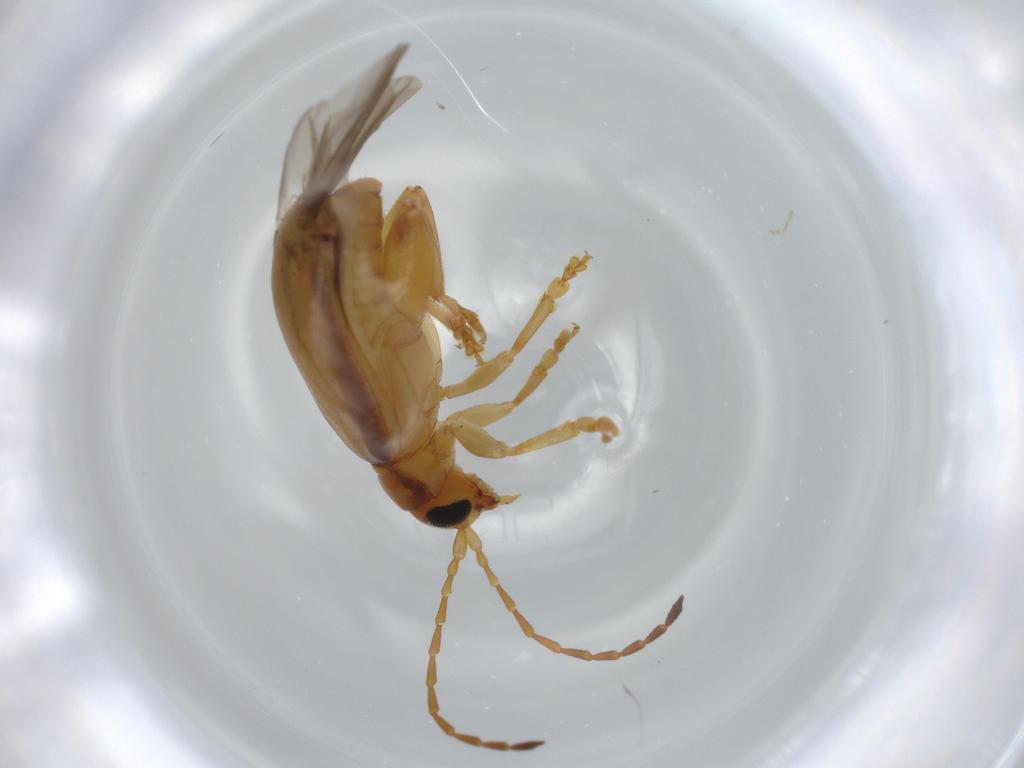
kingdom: Animalia
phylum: Arthropoda
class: Insecta
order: Coleoptera
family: Chrysomelidae
